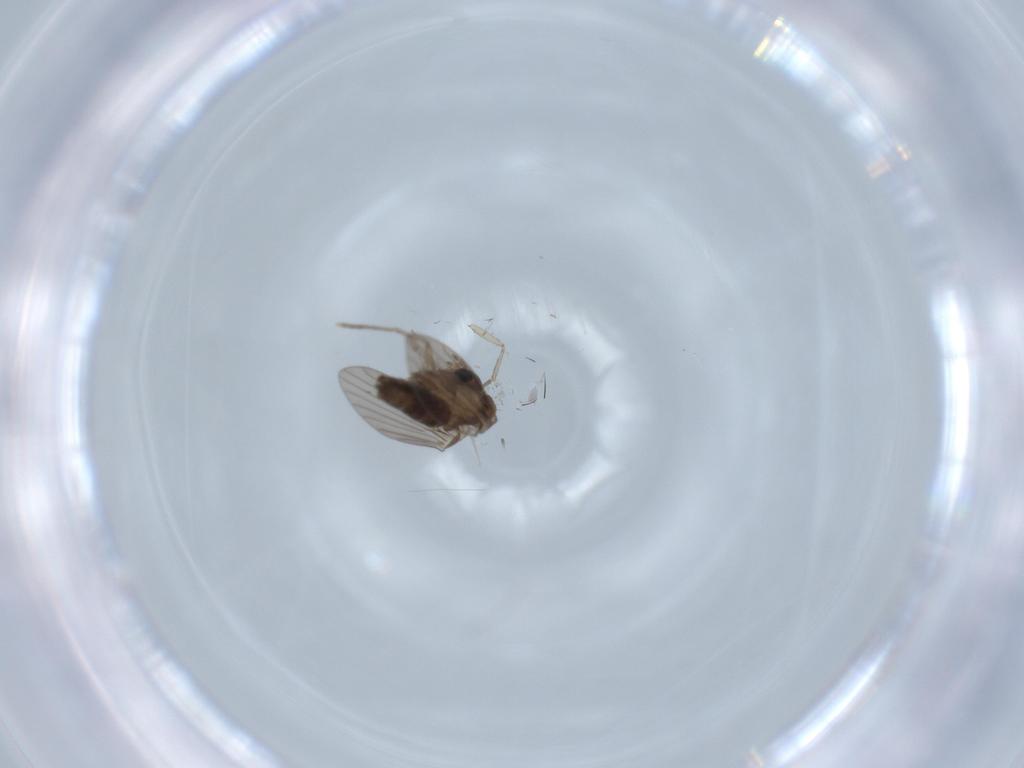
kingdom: Animalia
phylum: Arthropoda
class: Insecta
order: Diptera
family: Psychodidae
